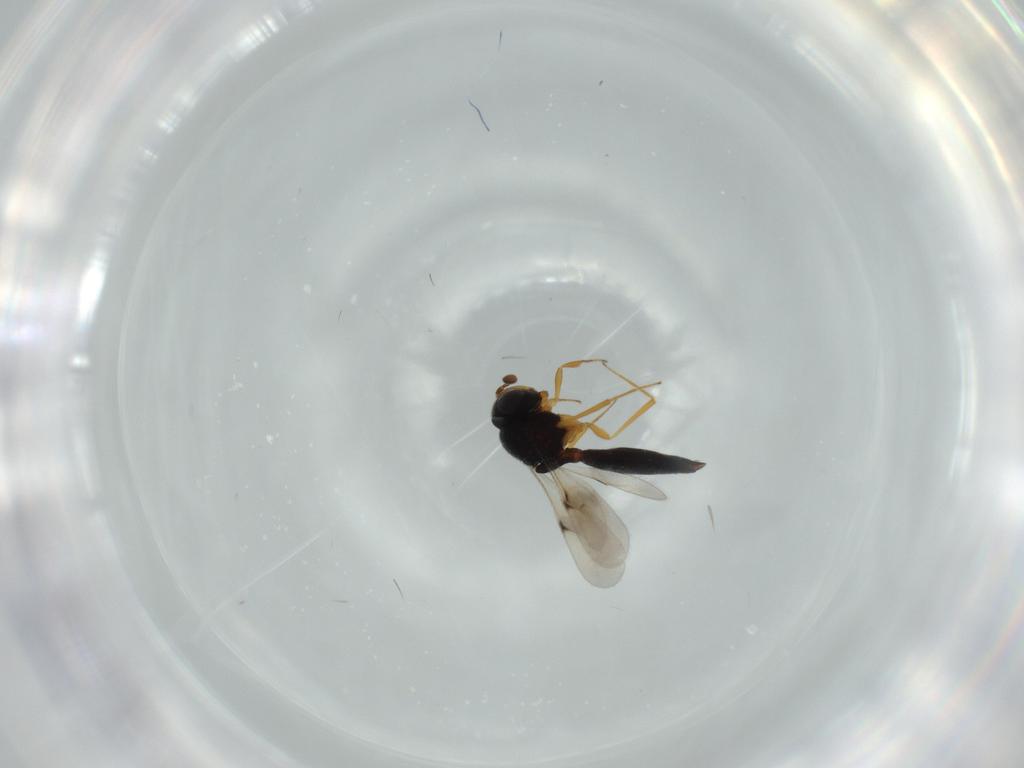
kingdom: Animalia
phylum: Arthropoda
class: Insecta
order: Hymenoptera
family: Scelionidae
